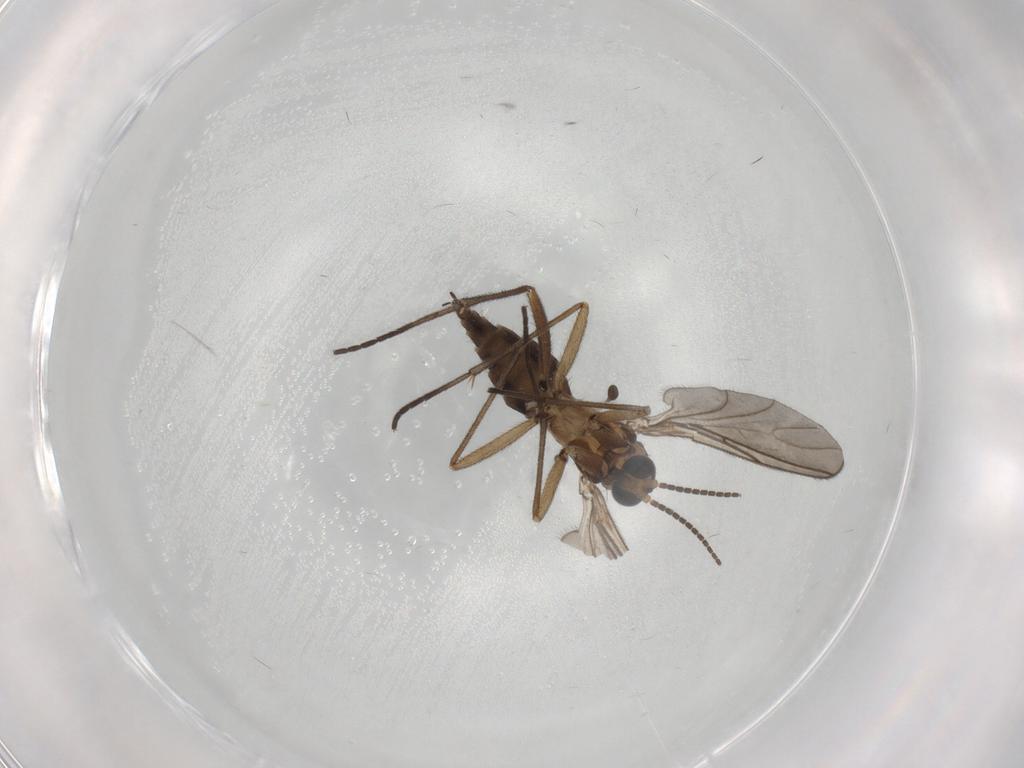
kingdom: Animalia
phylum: Arthropoda
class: Insecta
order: Diptera
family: Sciaridae
